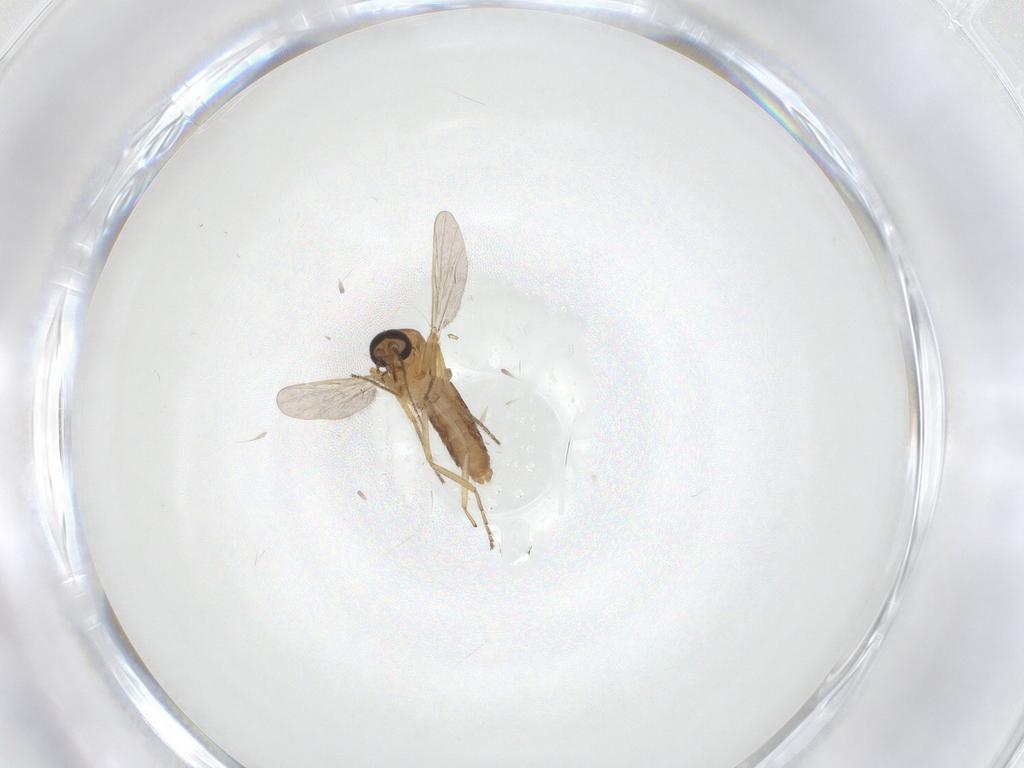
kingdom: Animalia
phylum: Arthropoda
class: Insecta
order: Diptera
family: Ceratopogonidae
